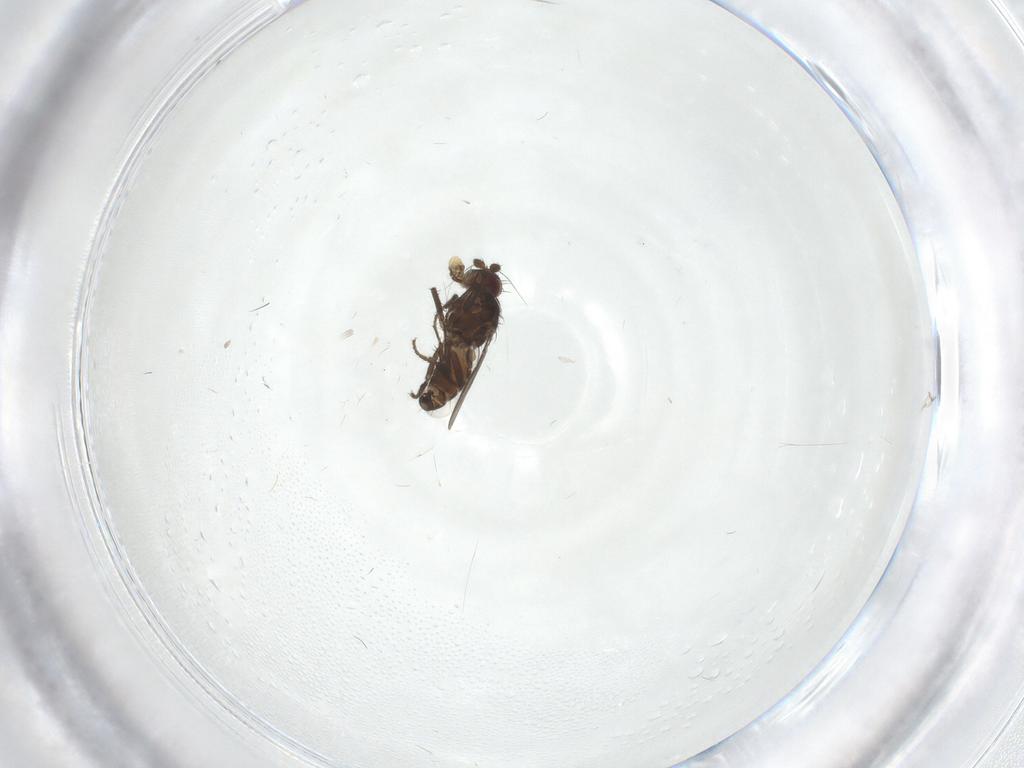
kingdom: Animalia
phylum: Arthropoda
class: Insecta
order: Diptera
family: Sphaeroceridae
